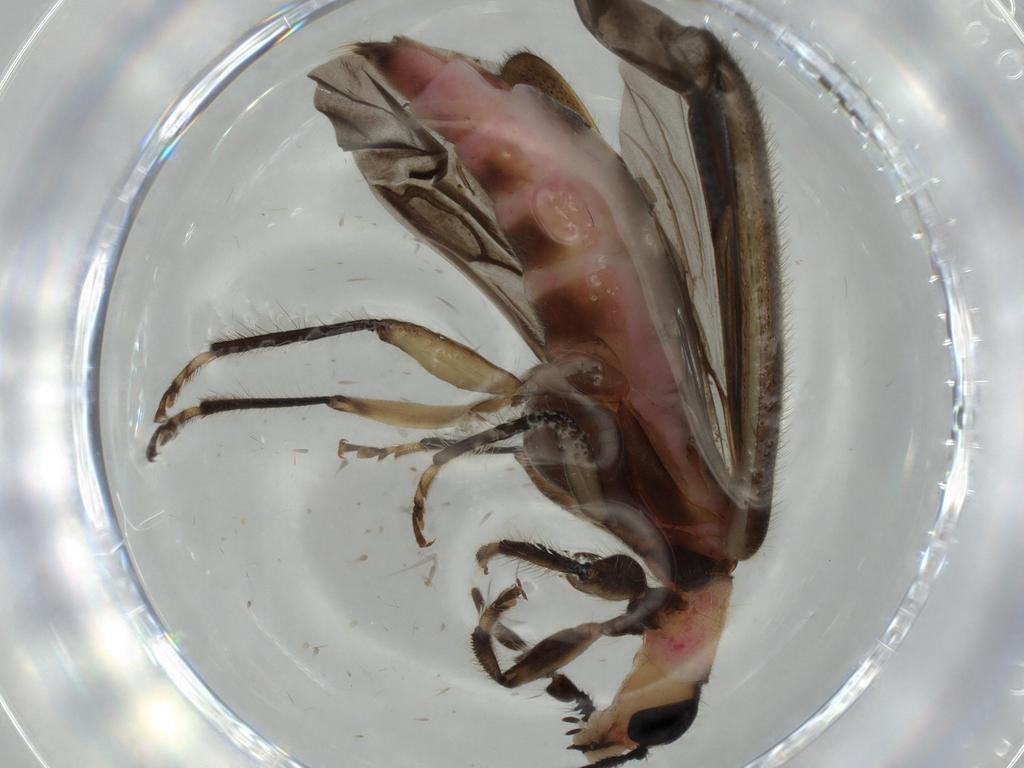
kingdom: Animalia
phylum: Arthropoda
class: Insecta
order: Coleoptera
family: Cleridae
